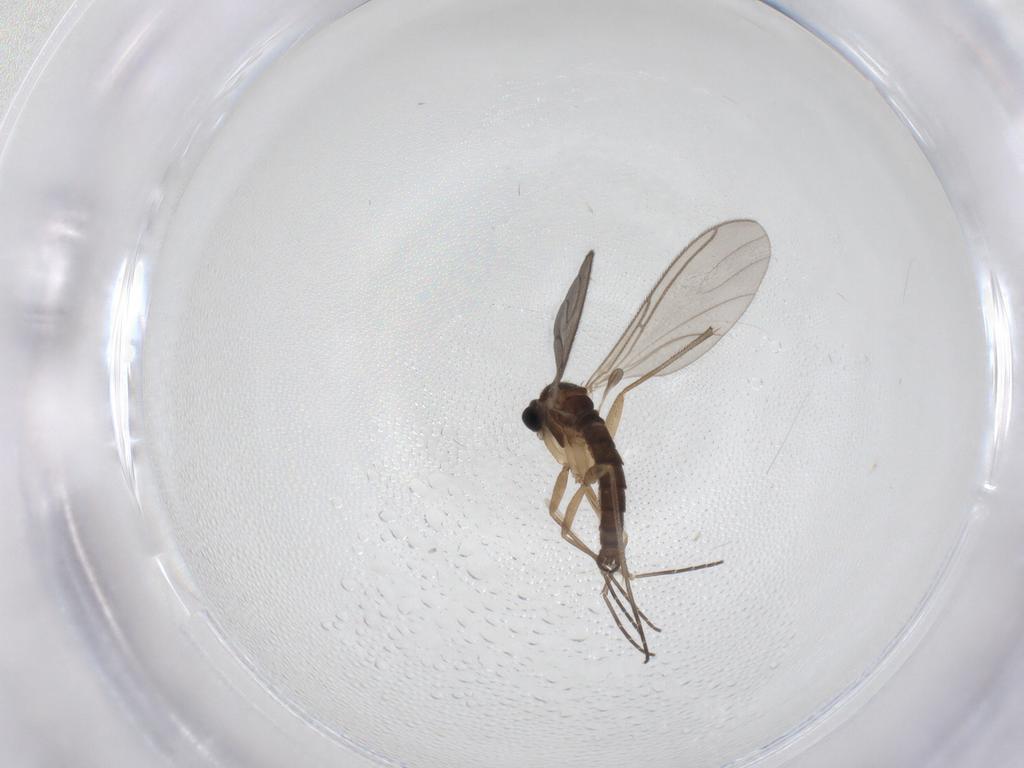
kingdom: Animalia
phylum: Arthropoda
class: Insecta
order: Diptera
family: Sciaridae
